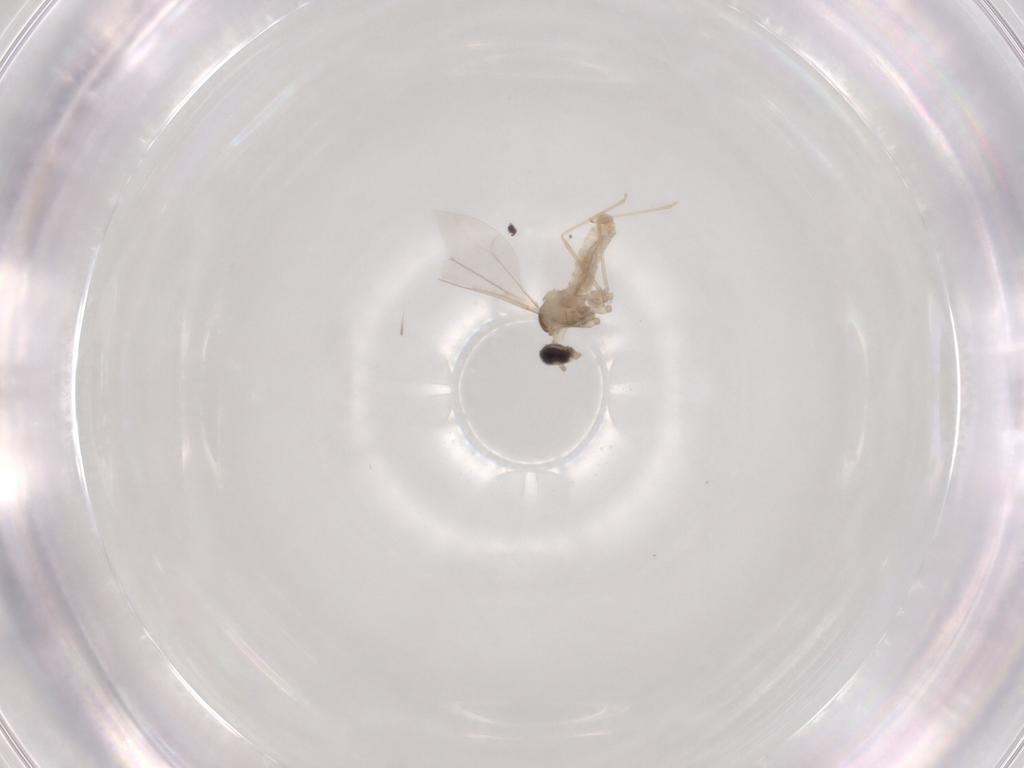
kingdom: Animalia
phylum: Arthropoda
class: Insecta
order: Diptera
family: Cecidomyiidae
